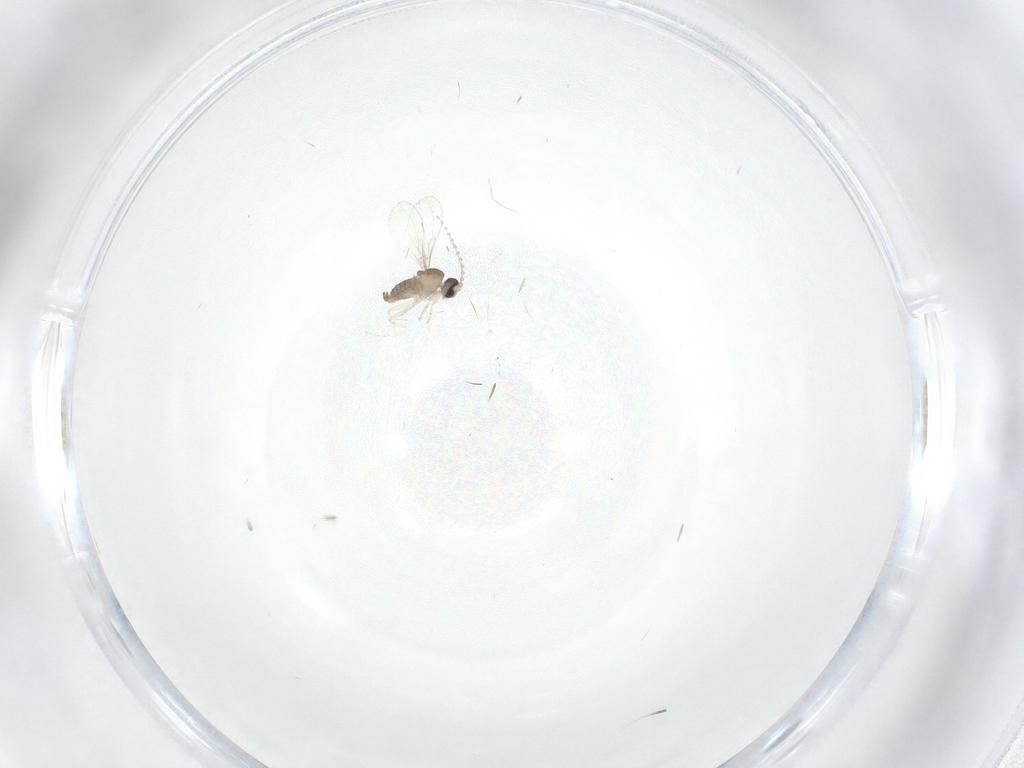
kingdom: Animalia
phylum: Arthropoda
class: Insecta
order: Diptera
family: Cecidomyiidae
